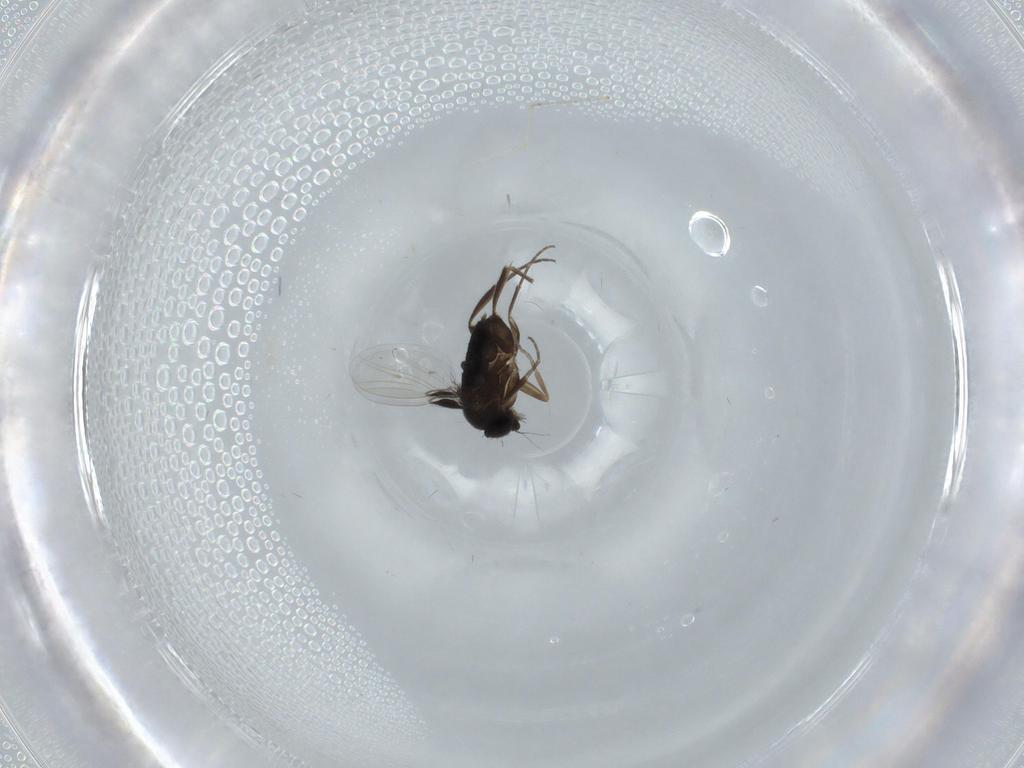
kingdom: Animalia
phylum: Arthropoda
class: Insecta
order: Diptera
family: Phoridae
